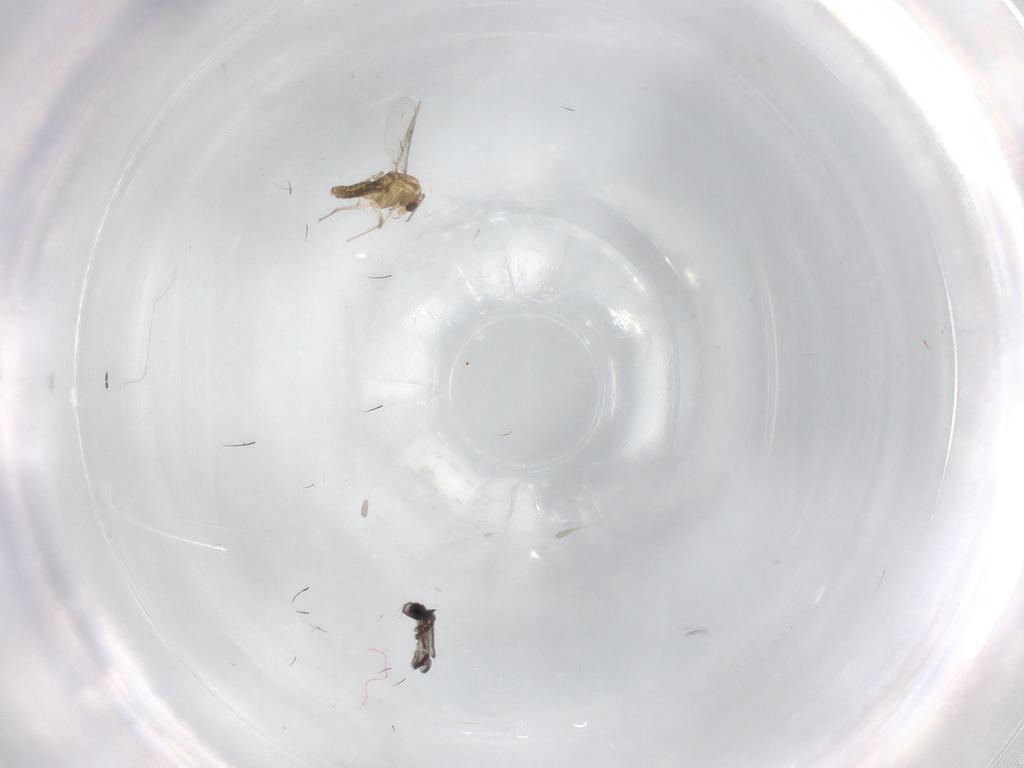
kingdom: Animalia
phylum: Arthropoda
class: Insecta
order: Diptera
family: Chironomidae
